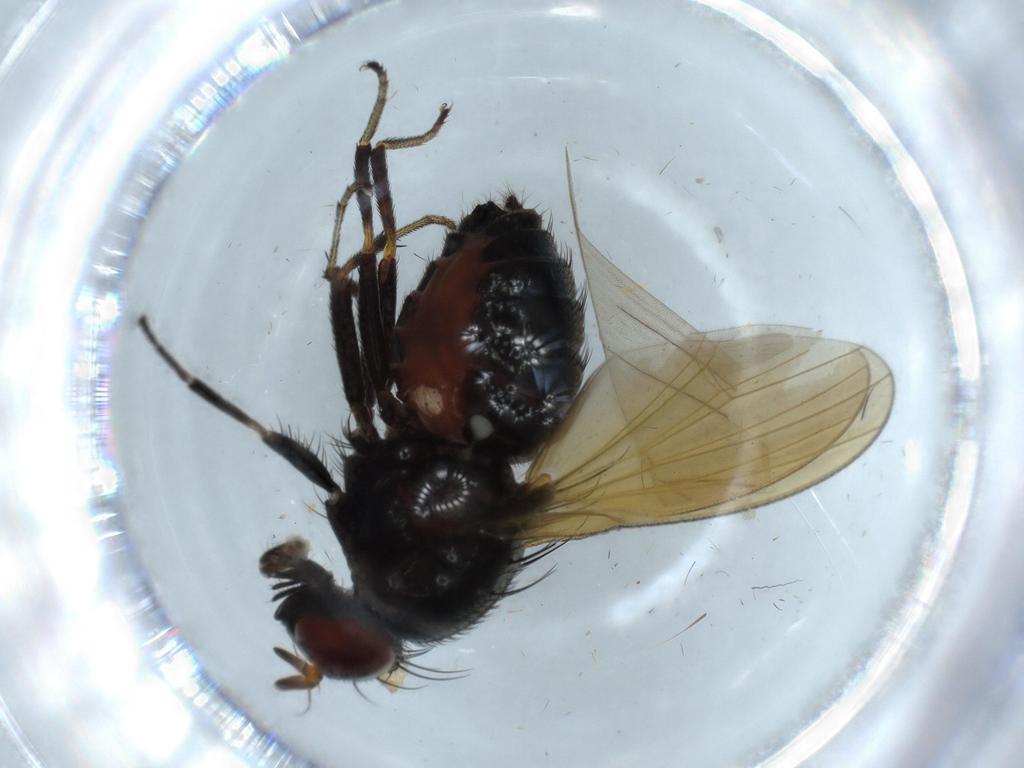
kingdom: Animalia
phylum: Arthropoda
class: Insecta
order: Diptera
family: Lauxaniidae
